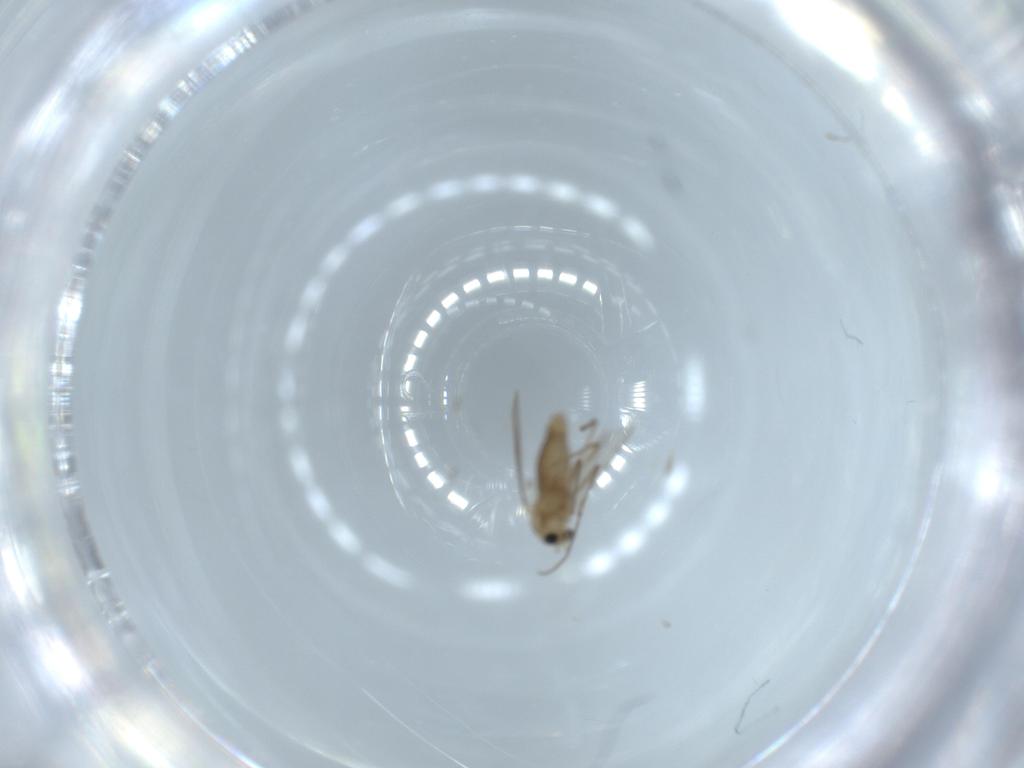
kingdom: Animalia
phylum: Arthropoda
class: Insecta
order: Diptera
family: Chironomidae
